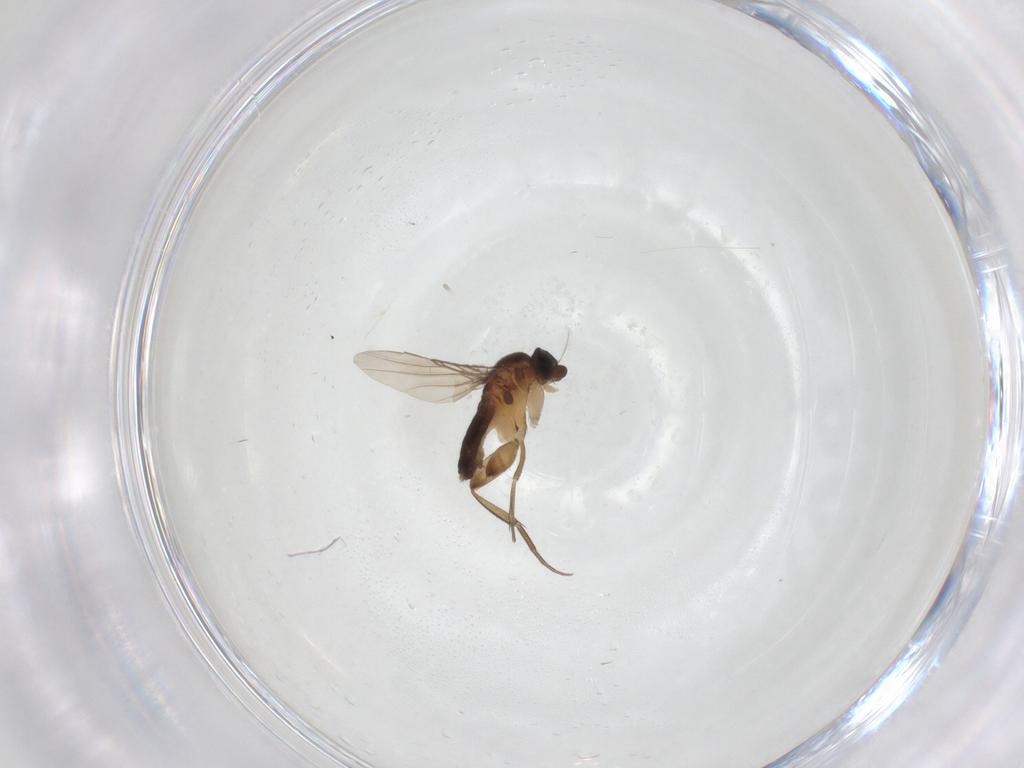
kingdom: Animalia
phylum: Arthropoda
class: Insecta
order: Diptera
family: Phoridae
